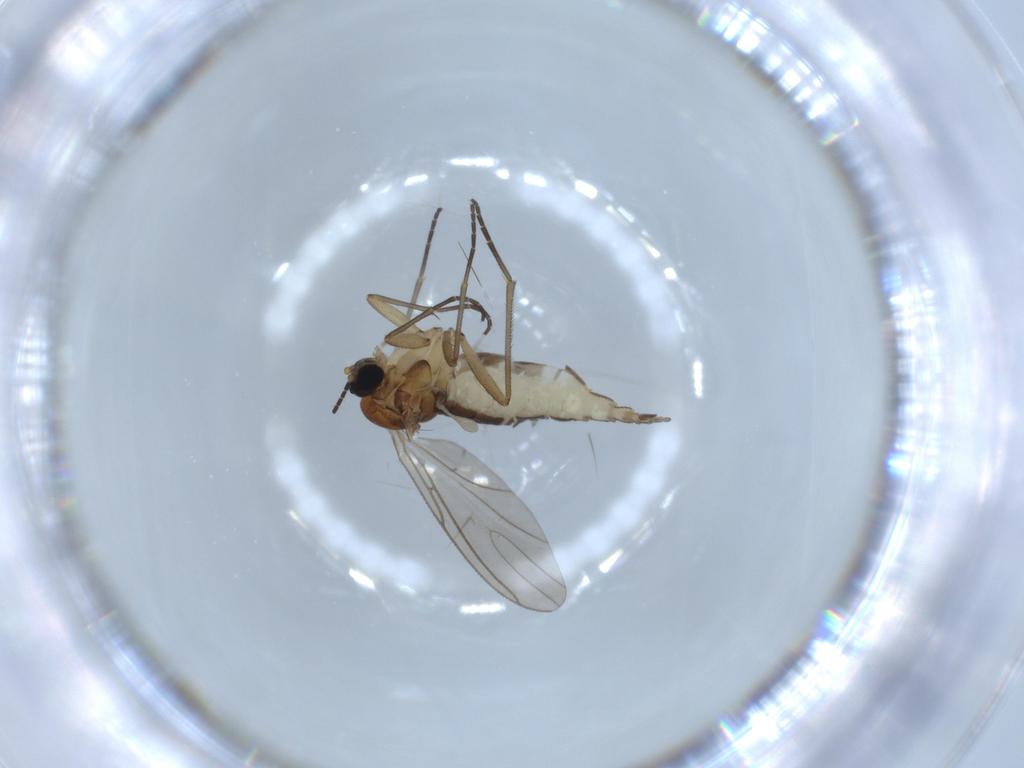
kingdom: Animalia
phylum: Arthropoda
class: Insecta
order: Diptera
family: Sciaridae
